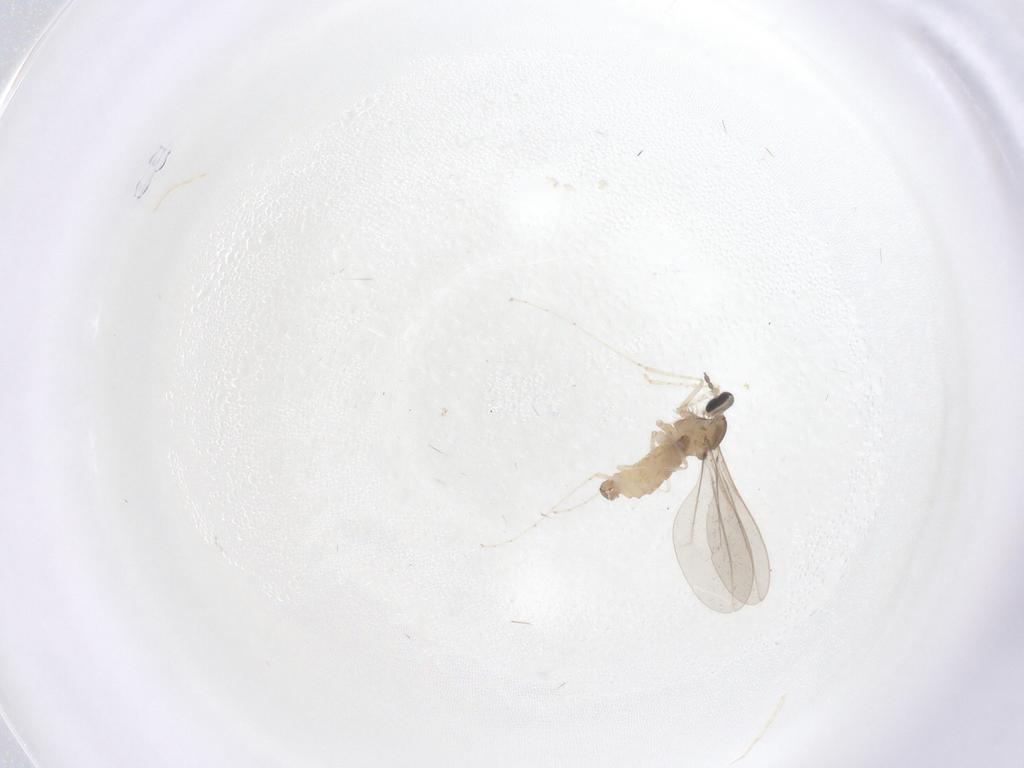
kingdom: Animalia
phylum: Arthropoda
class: Insecta
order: Diptera
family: Cecidomyiidae
